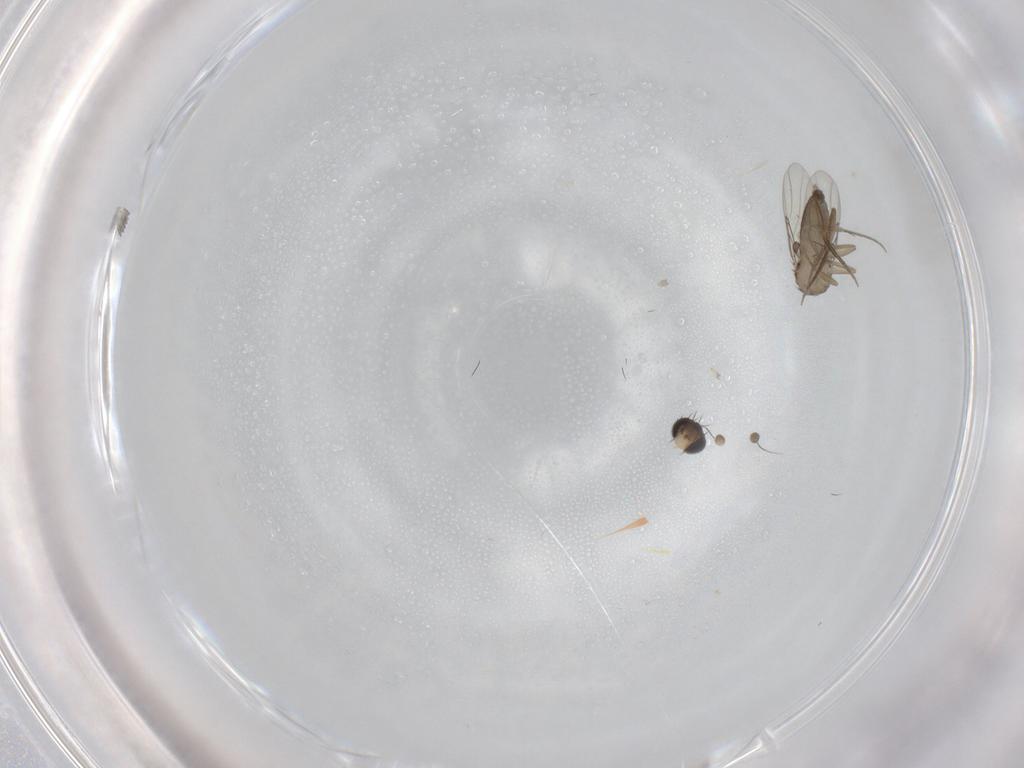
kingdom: Animalia
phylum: Arthropoda
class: Insecta
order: Diptera
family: Phoridae
